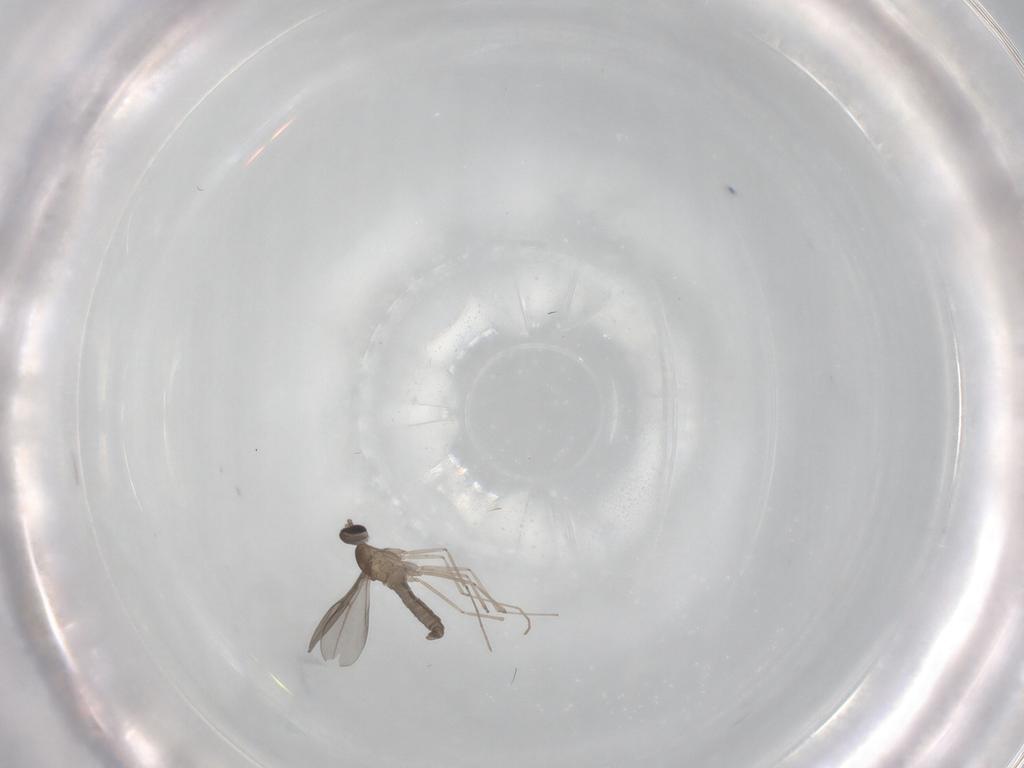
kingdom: Animalia
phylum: Arthropoda
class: Insecta
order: Diptera
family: Cecidomyiidae
